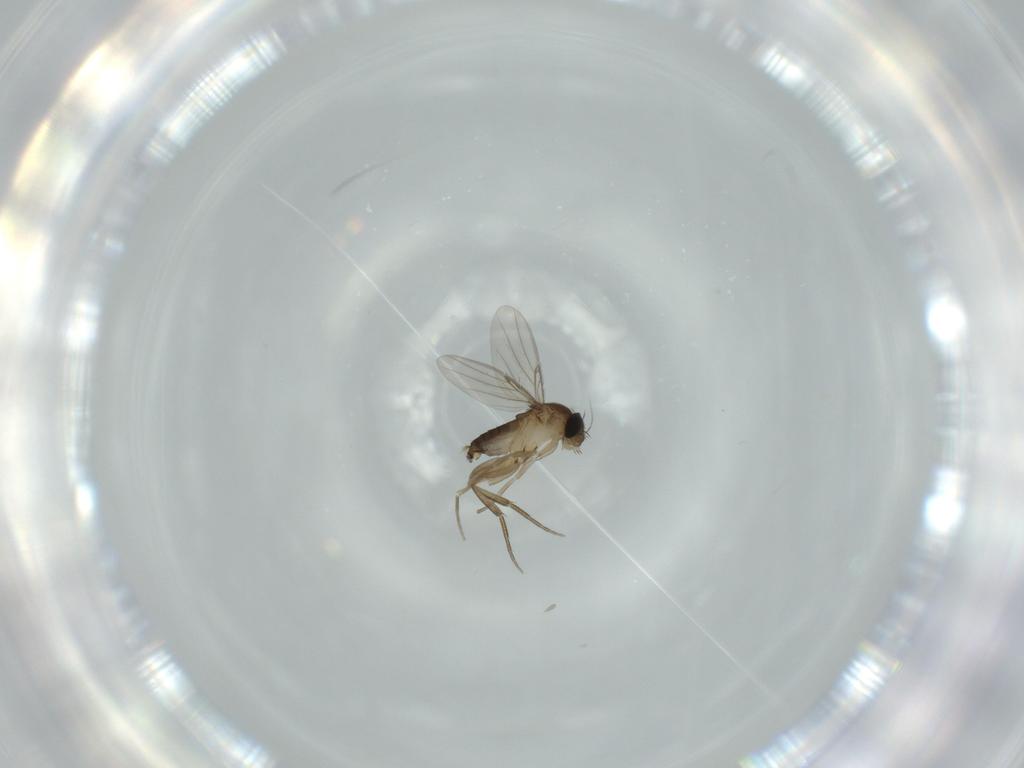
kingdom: Animalia
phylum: Arthropoda
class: Insecta
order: Diptera
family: Phoridae
